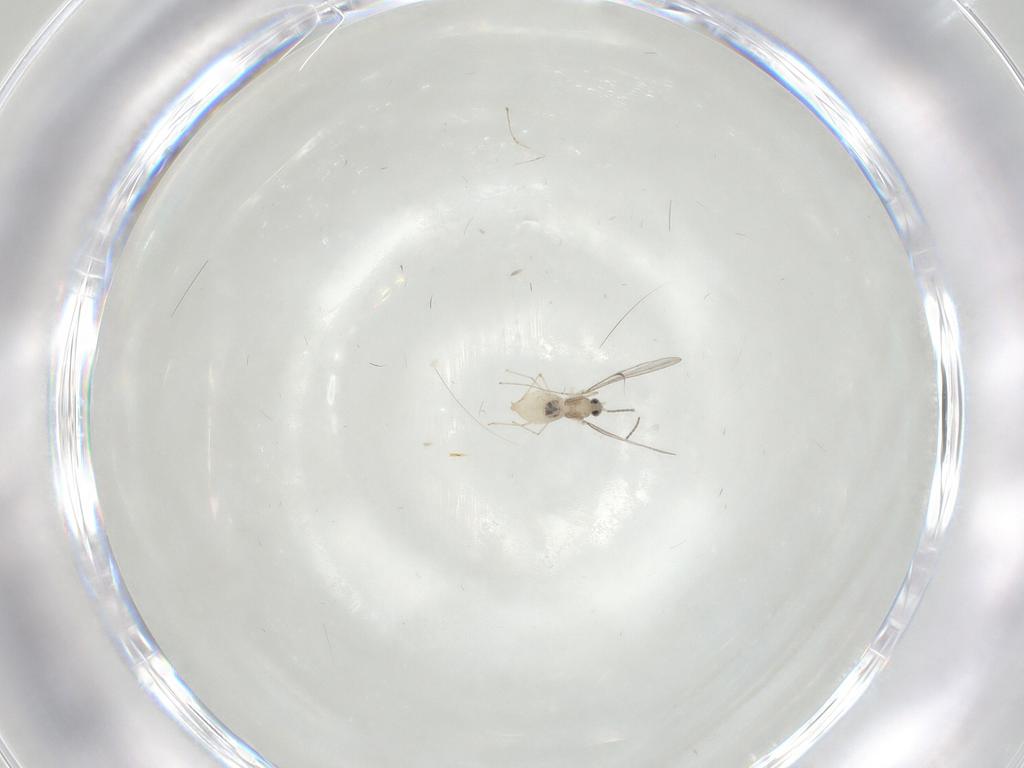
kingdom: Animalia
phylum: Arthropoda
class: Insecta
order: Diptera
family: Cecidomyiidae
